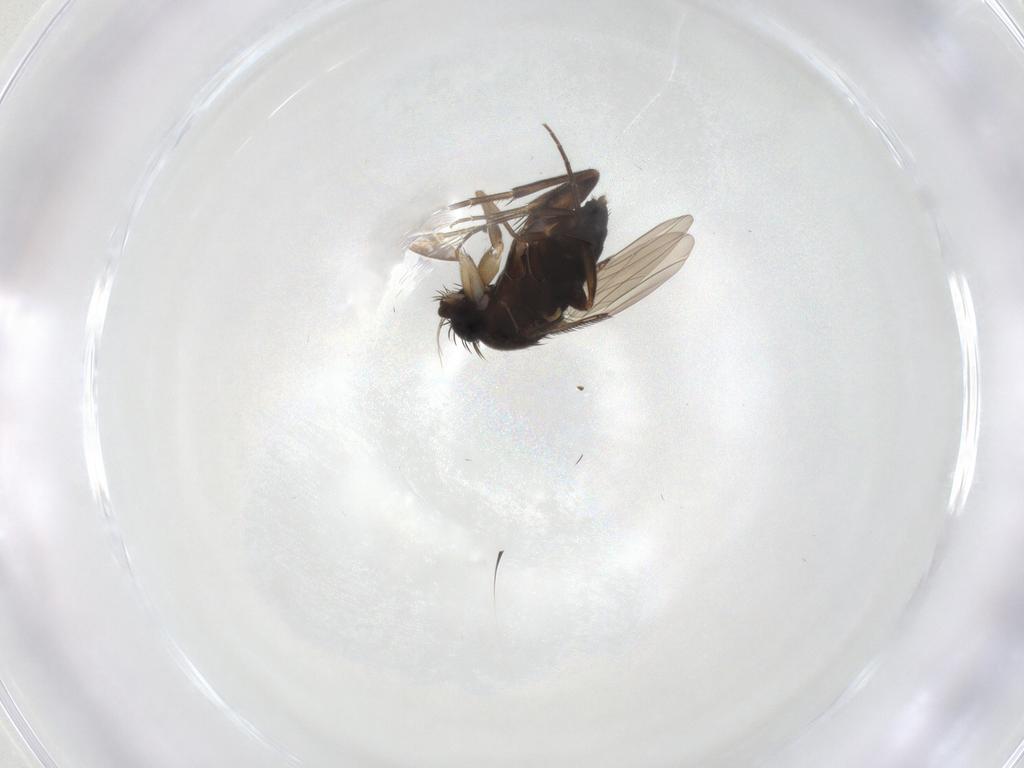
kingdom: Animalia
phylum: Arthropoda
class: Insecta
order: Diptera
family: Phoridae
